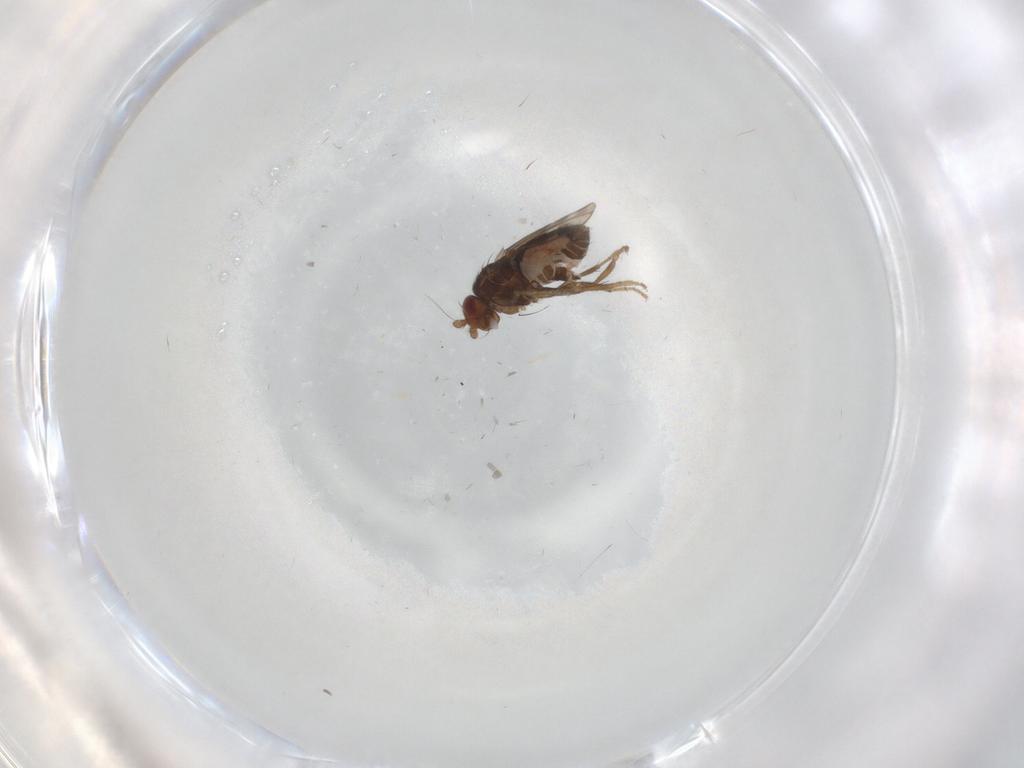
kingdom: Animalia
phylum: Arthropoda
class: Insecta
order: Diptera
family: Sphaeroceridae
